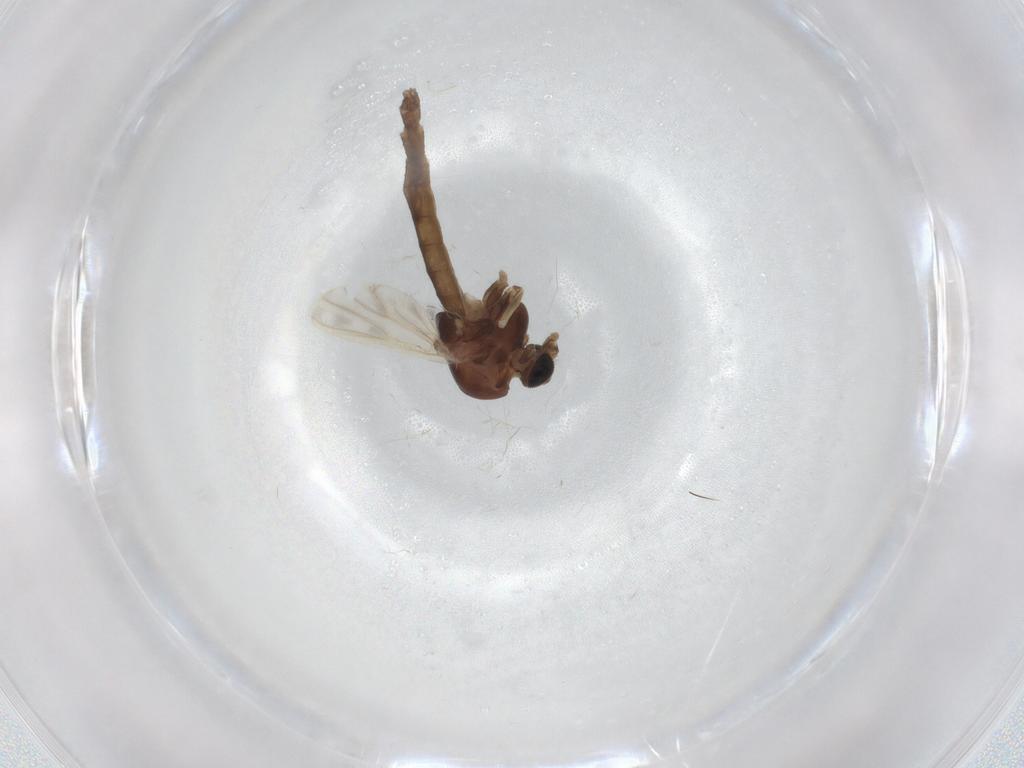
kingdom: Animalia
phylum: Arthropoda
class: Insecta
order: Diptera
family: Chironomidae
